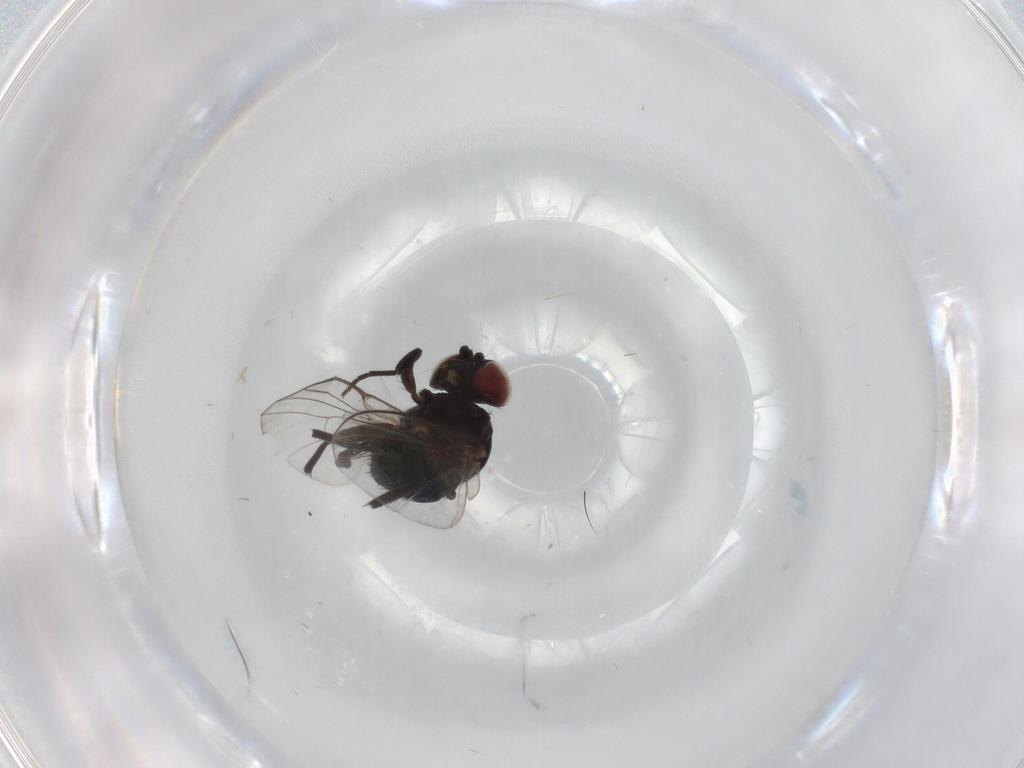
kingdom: Animalia
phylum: Arthropoda
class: Insecta
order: Diptera
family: Agromyzidae
